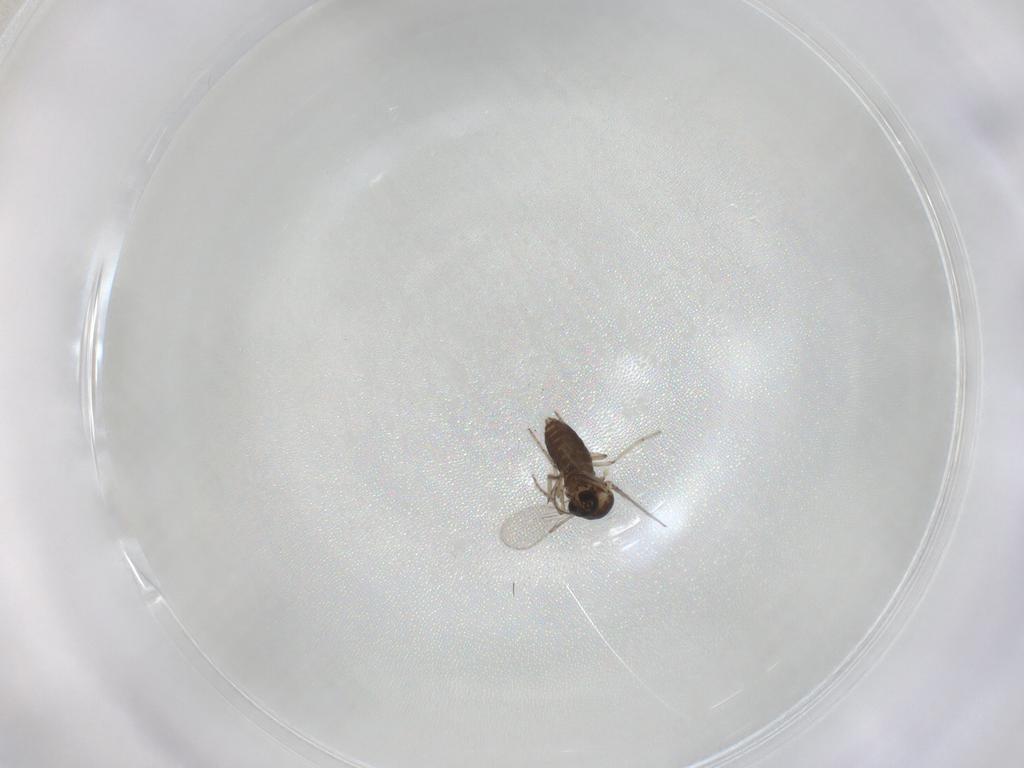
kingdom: Animalia
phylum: Arthropoda
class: Insecta
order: Diptera
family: Ceratopogonidae
